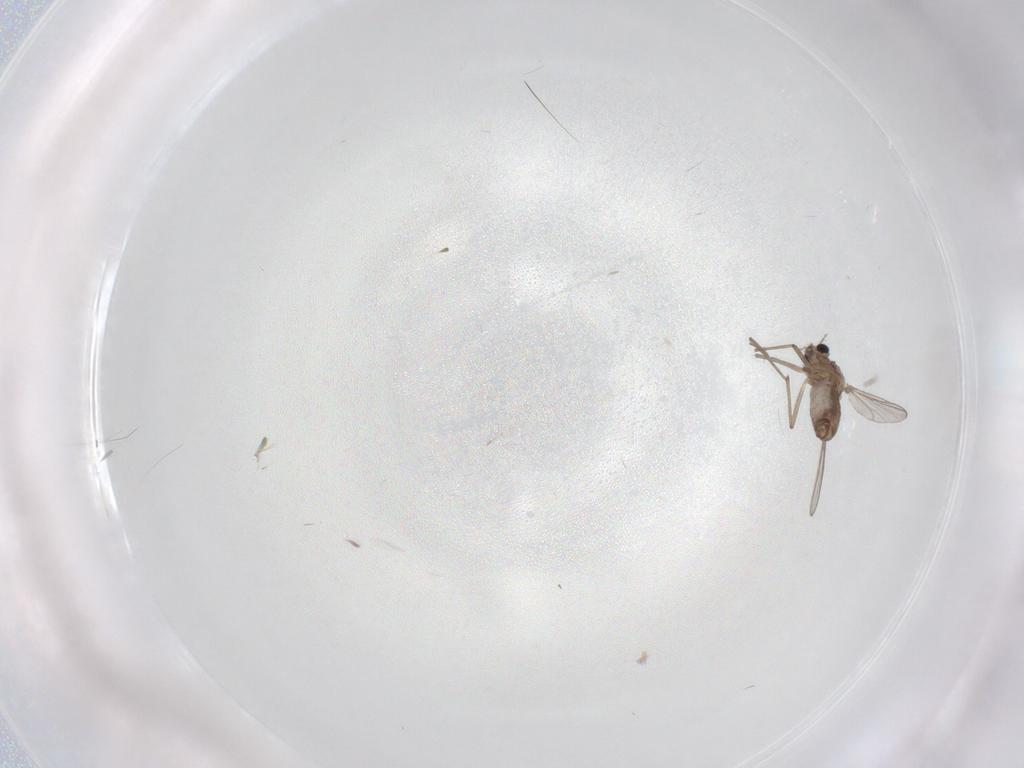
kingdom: Animalia
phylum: Arthropoda
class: Insecta
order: Diptera
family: Chironomidae
